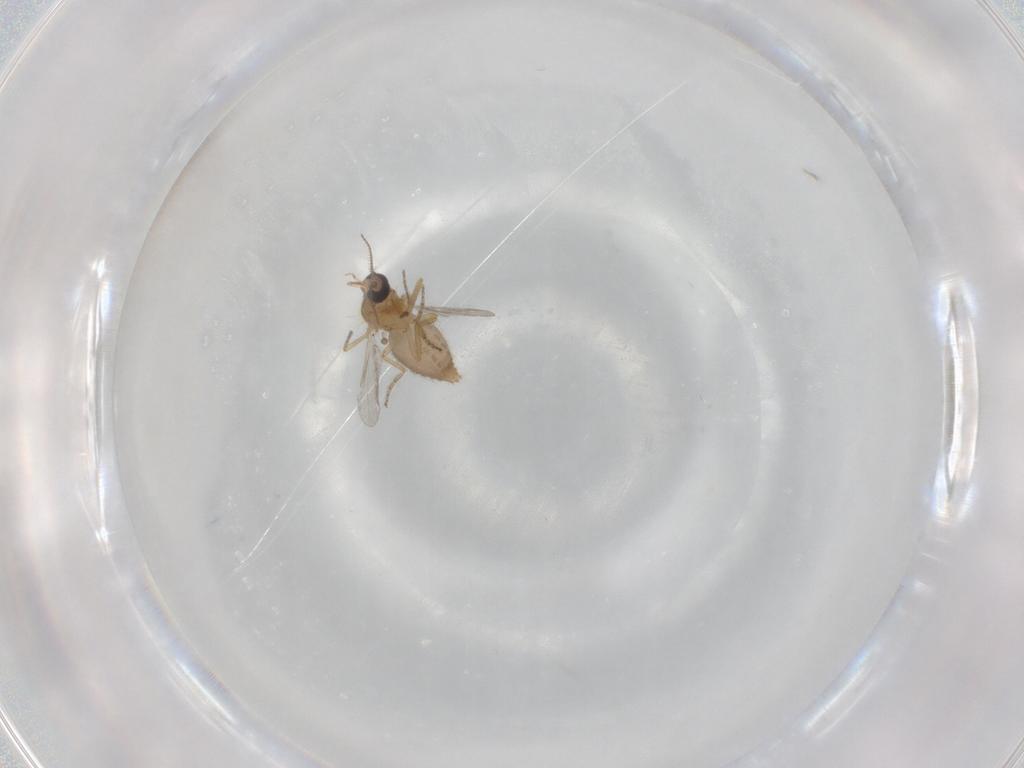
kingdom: Animalia
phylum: Arthropoda
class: Insecta
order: Diptera
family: Ceratopogonidae
